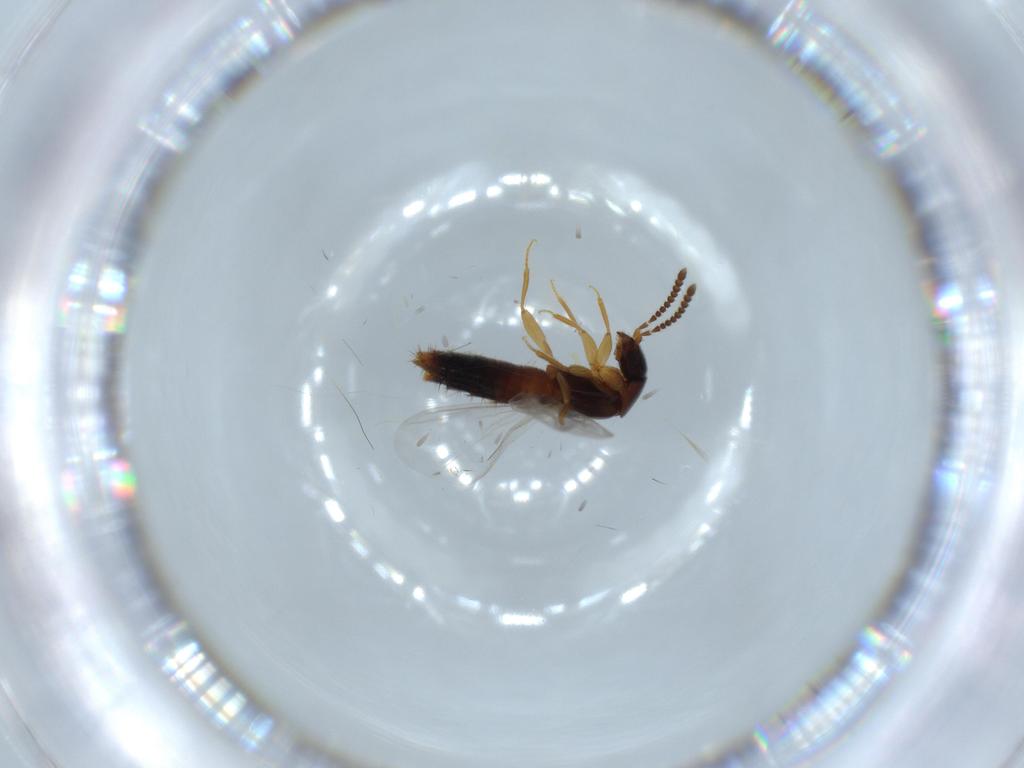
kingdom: Animalia
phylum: Arthropoda
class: Insecta
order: Coleoptera
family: Staphylinidae
